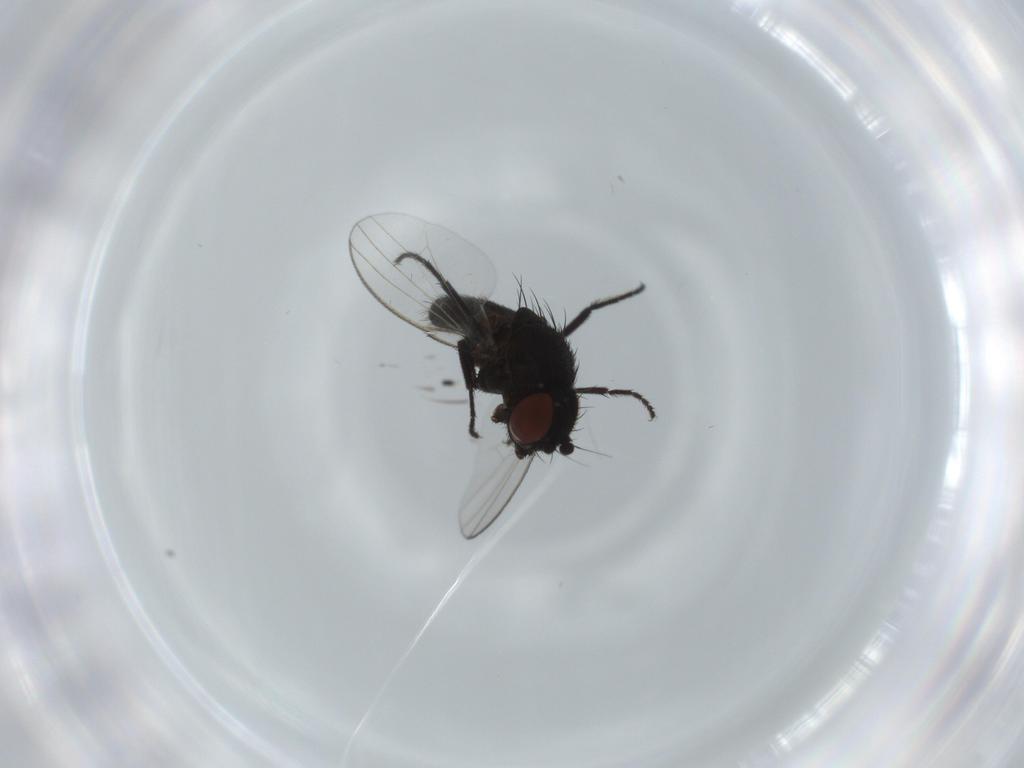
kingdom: Animalia
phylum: Arthropoda
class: Insecta
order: Diptera
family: Milichiidae
